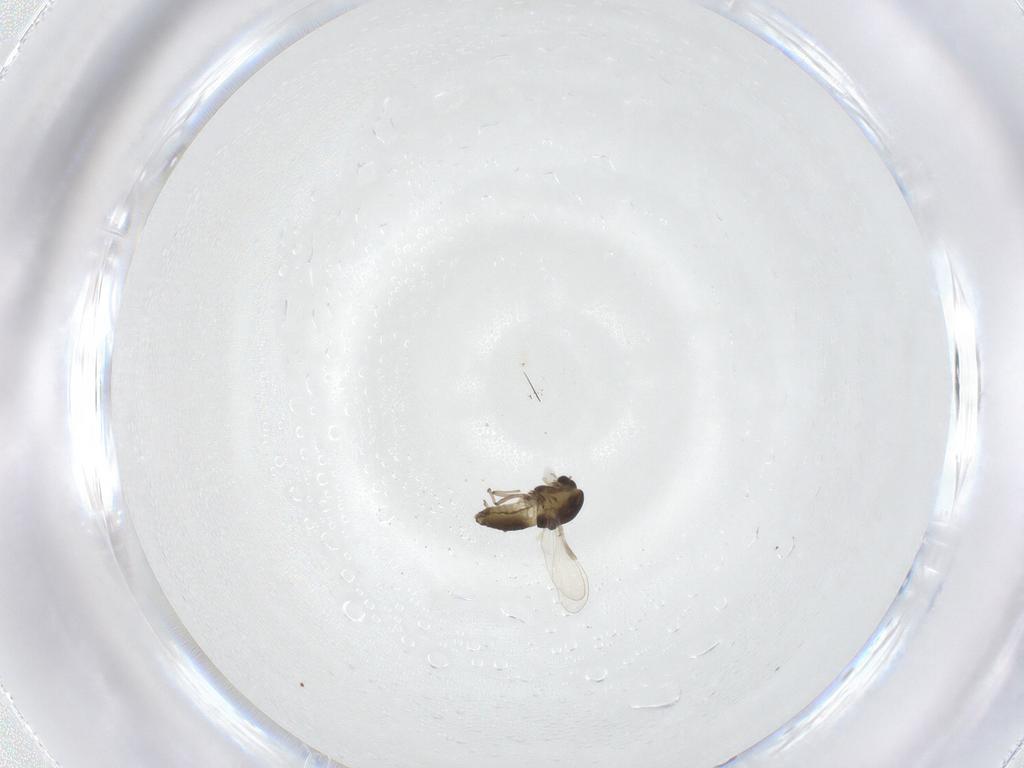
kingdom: Animalia
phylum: Arthropoda
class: Insecta
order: Diptera
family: Chironomidae
